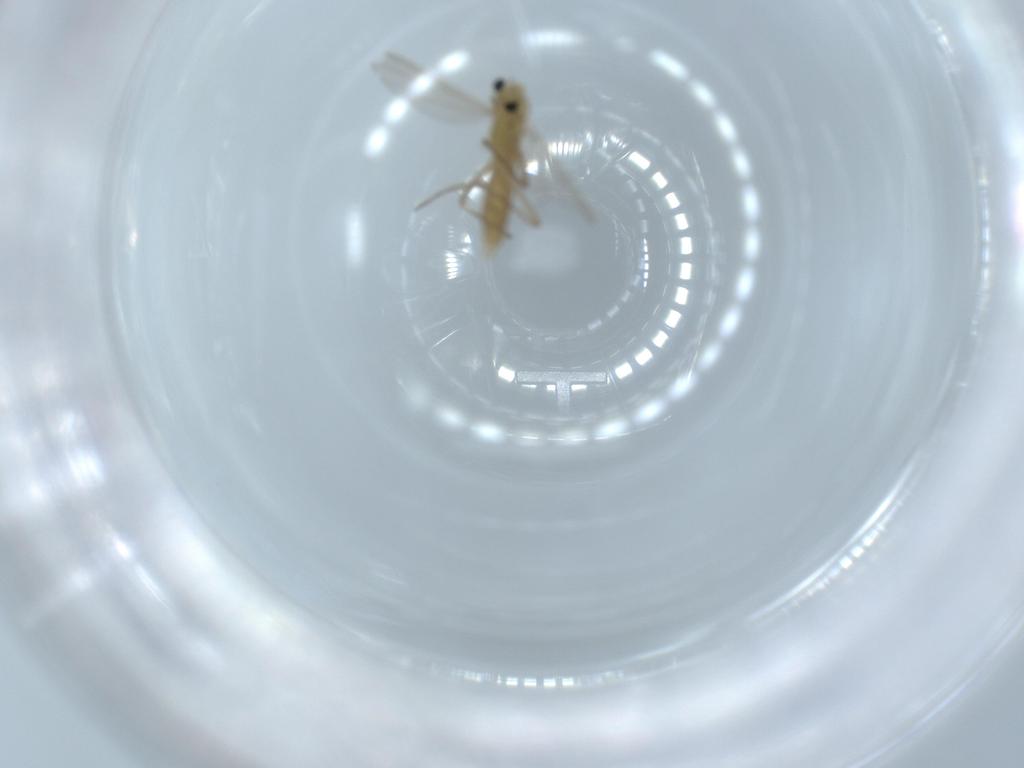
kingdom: Animalia
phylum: Arthropoda
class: Insecta
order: Diptera
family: Chironomidae
